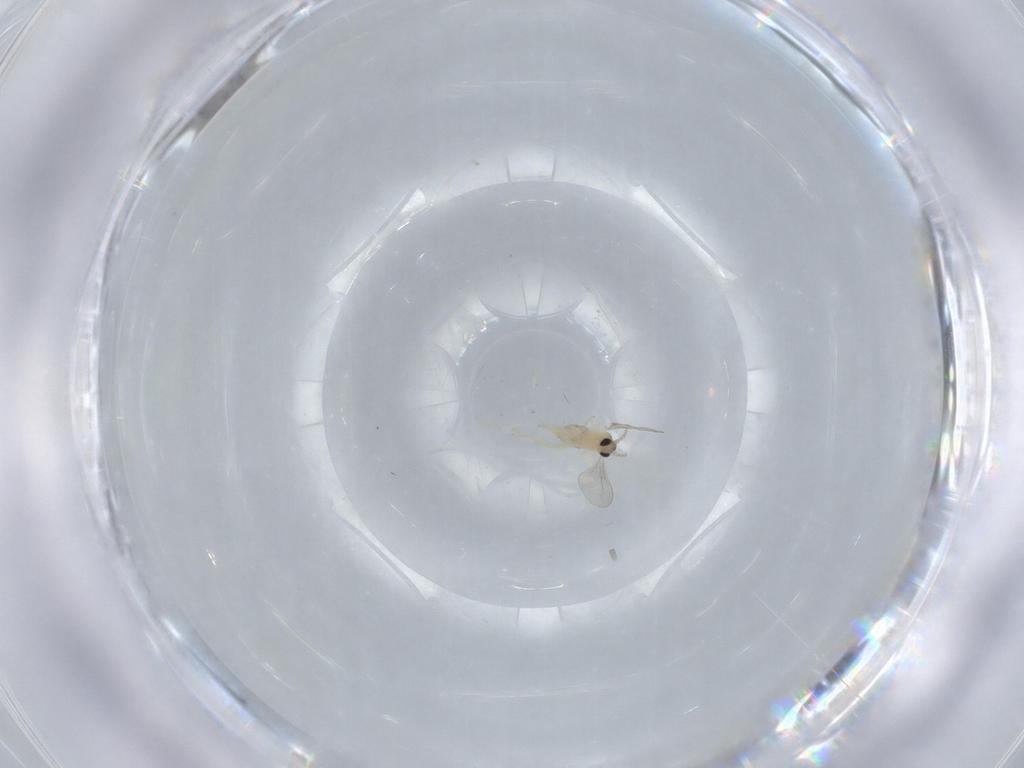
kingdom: Animalia
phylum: Arthropoda
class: Insecta
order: Diptera
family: Cecidomyiidae
